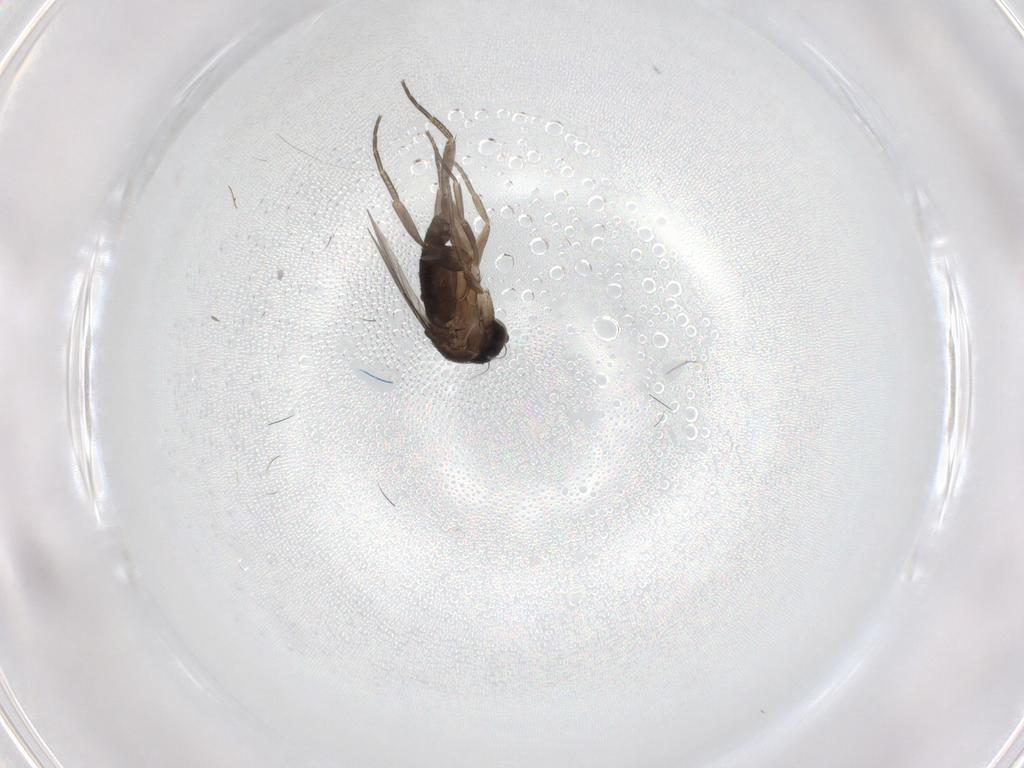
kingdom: Animalia
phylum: Arthropoda
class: Insecta
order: Diptera
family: Phoridae
